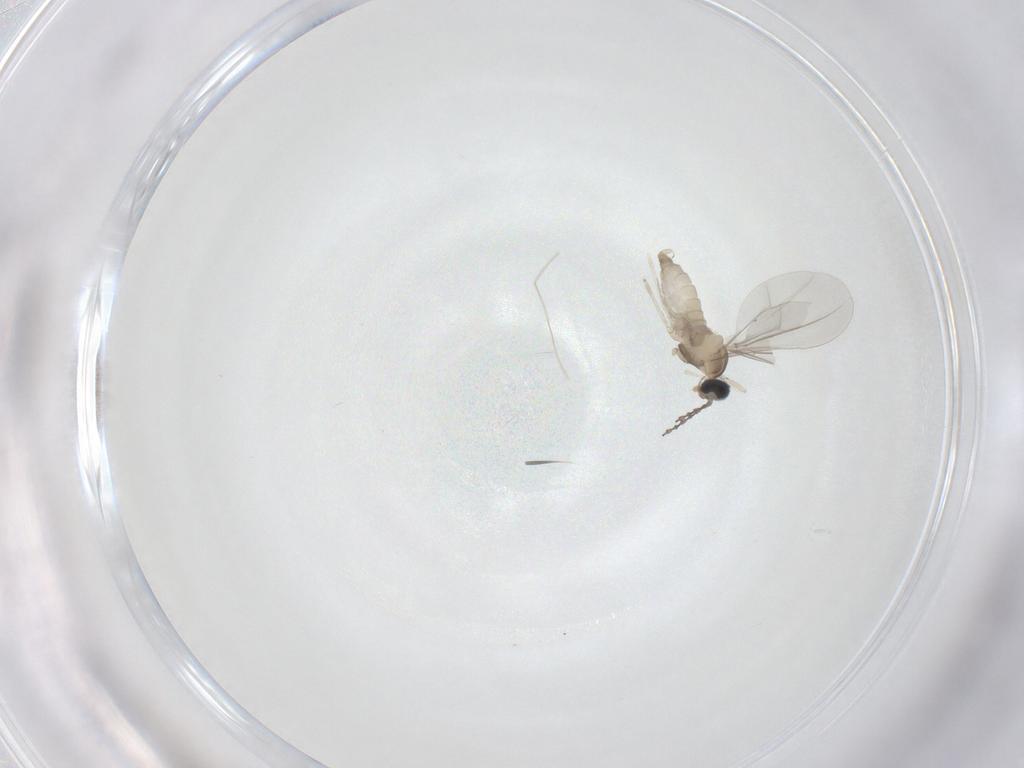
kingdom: Animalia
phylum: Arthropoda
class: Insecta
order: Diptera
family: Cecidomyiidae
